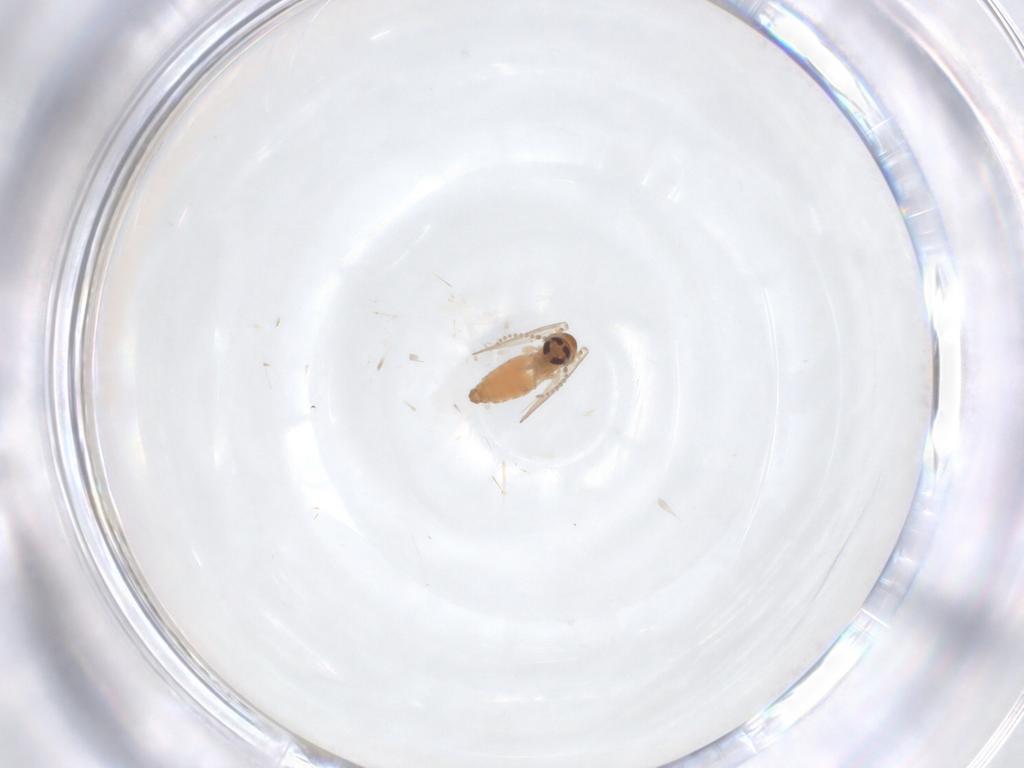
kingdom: Animalia
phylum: Arthropoda
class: Insecta
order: Diptera
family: Phoridae
